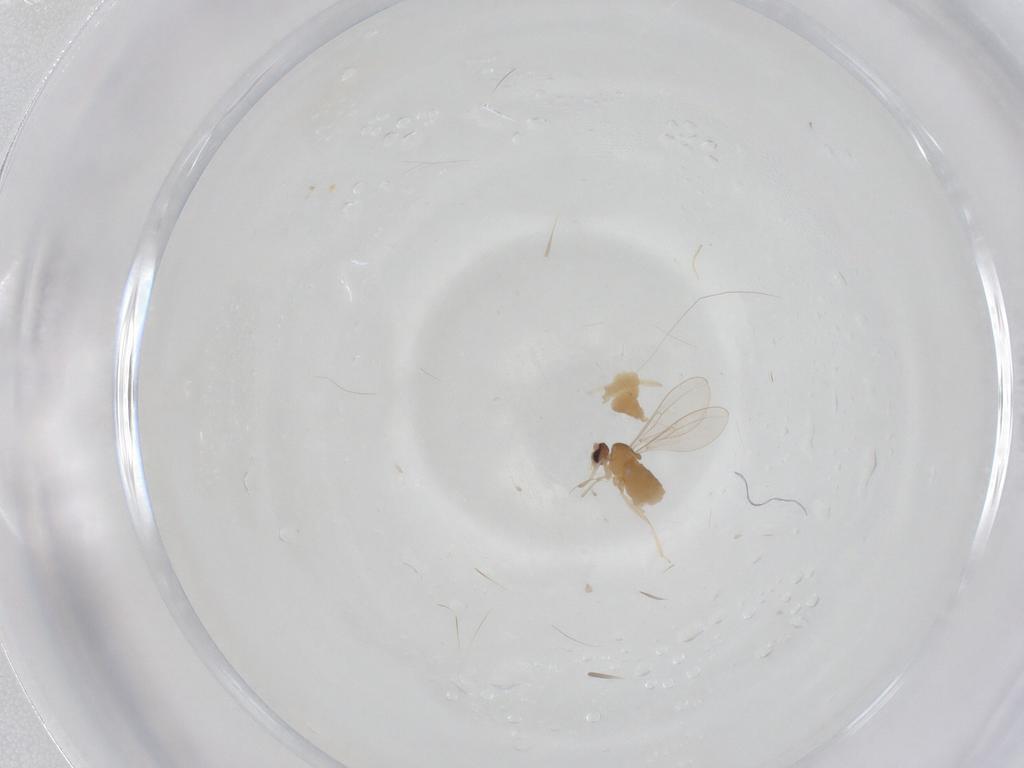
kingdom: Animalia
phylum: Arthropoda
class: Insecta
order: Diptera
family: Cecidomyiidae
